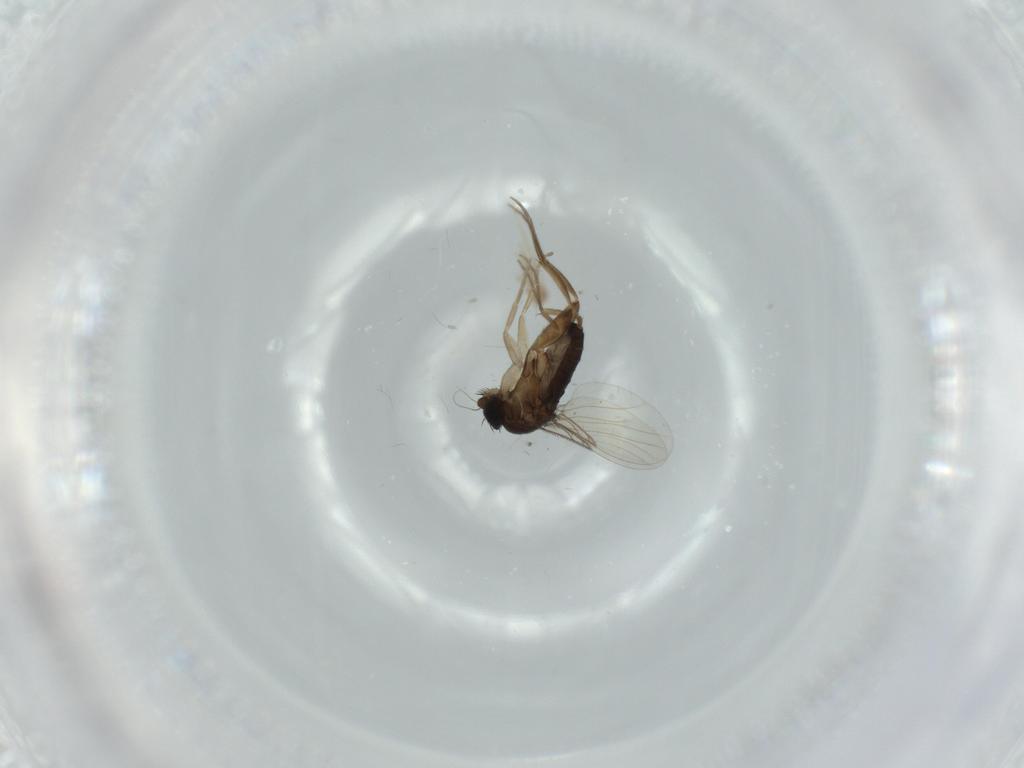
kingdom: Animalia
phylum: Arthropoda
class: Insecta
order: Diptera
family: Phoridae
